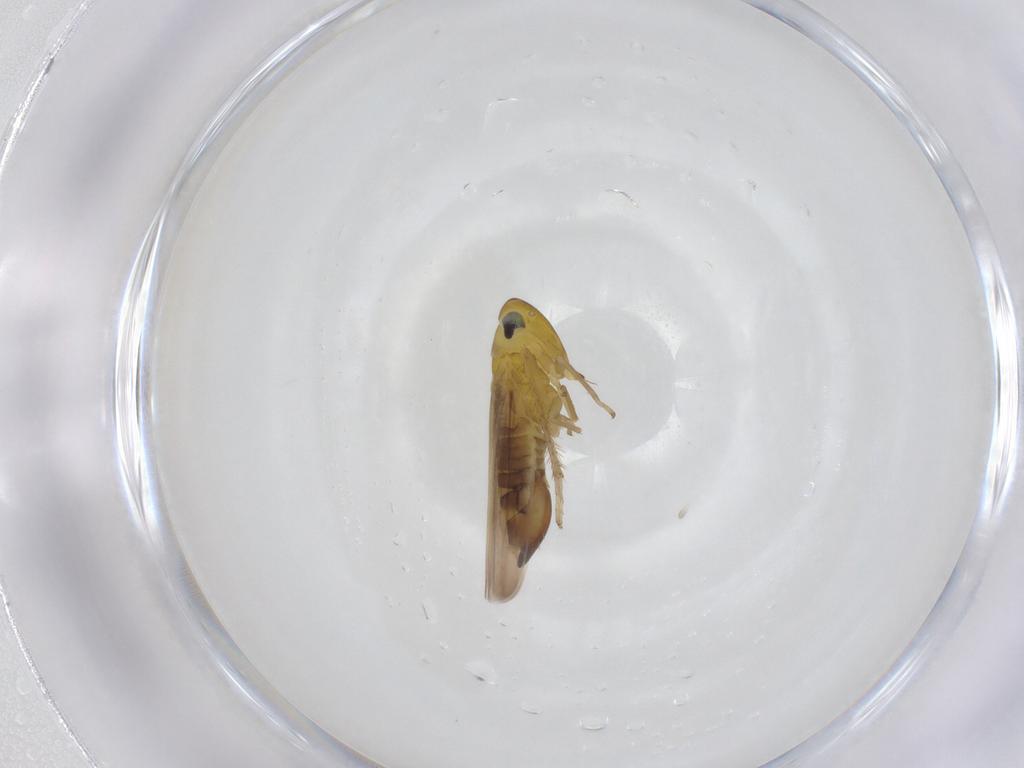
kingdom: Animalia
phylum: Arthropoda
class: Insecta
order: Hemiptera
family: Cicadellidae
